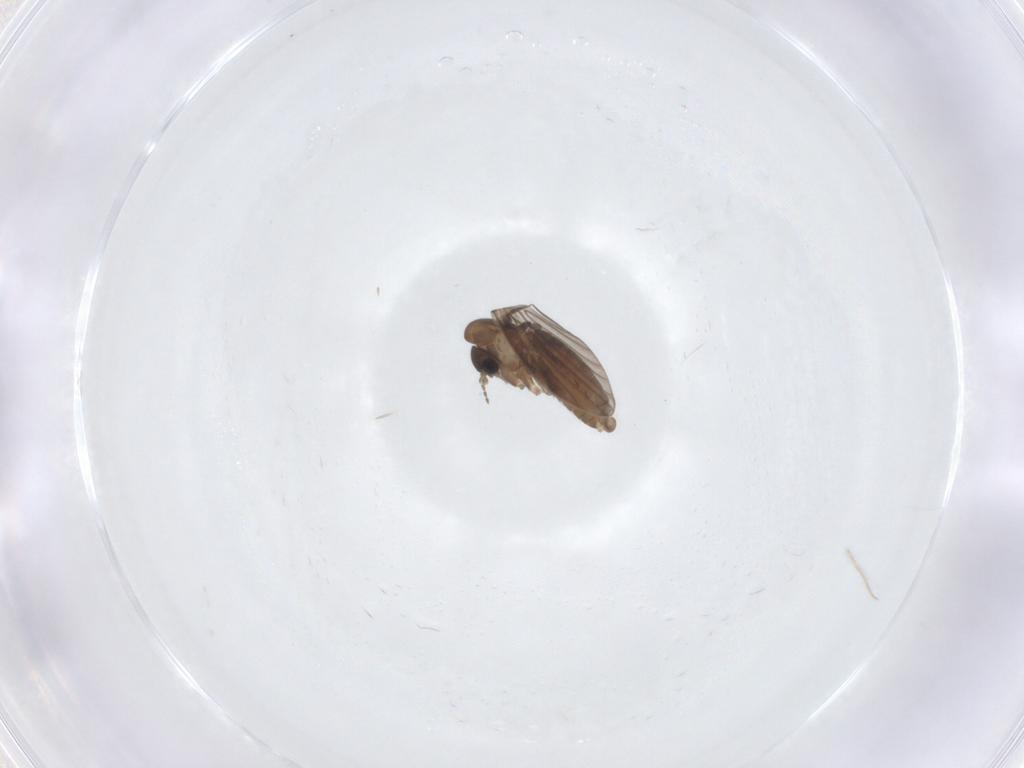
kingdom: Animalia
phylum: Arthropoda
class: Insecta
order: Diptera
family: Psychodidae
